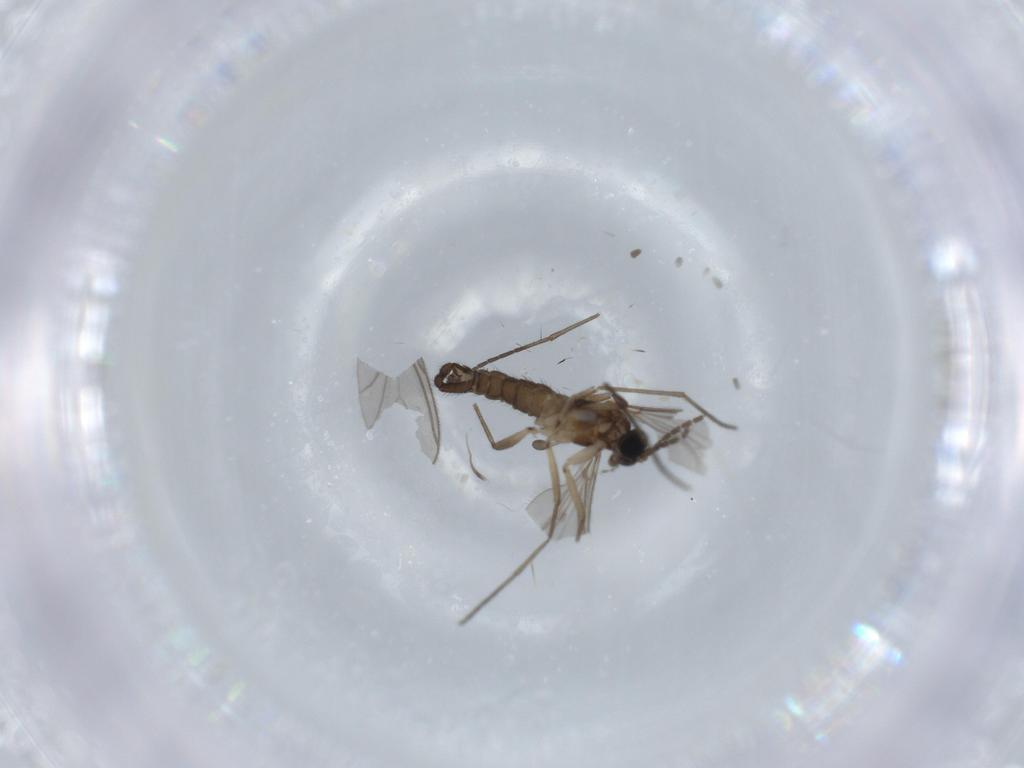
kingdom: Animalia
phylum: Arthropoda
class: Insecta
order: Diptera
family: Sciaridae
